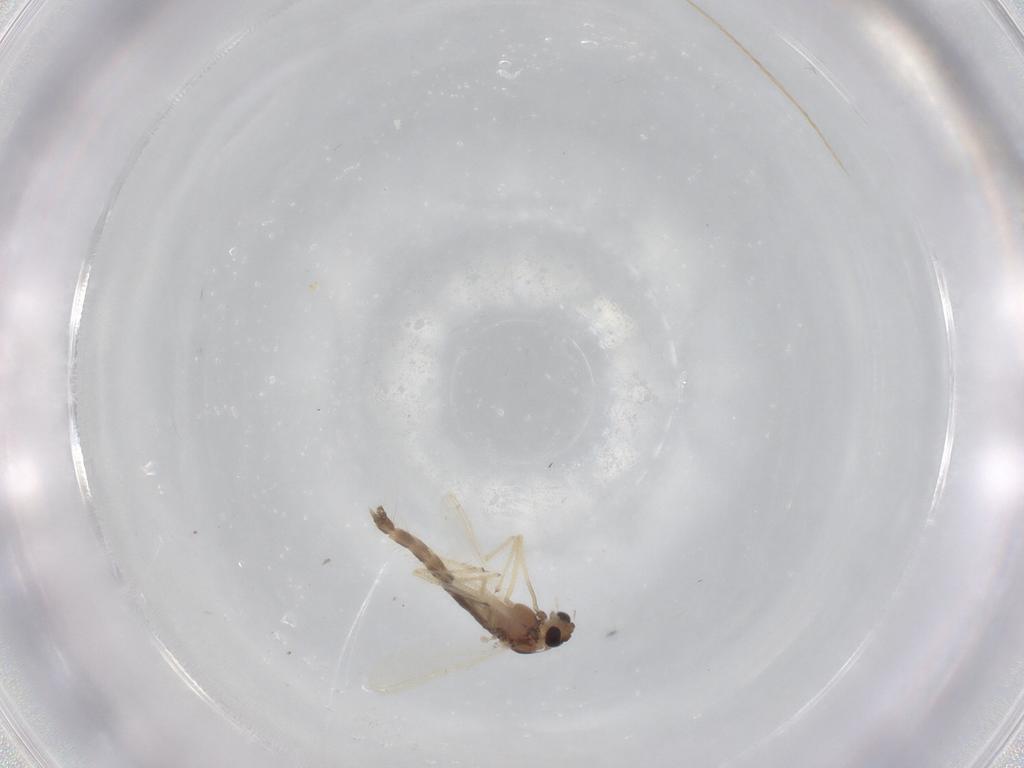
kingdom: Animalia
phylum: Arthropoda
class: Insecta
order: Diptera
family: Chironomidae
